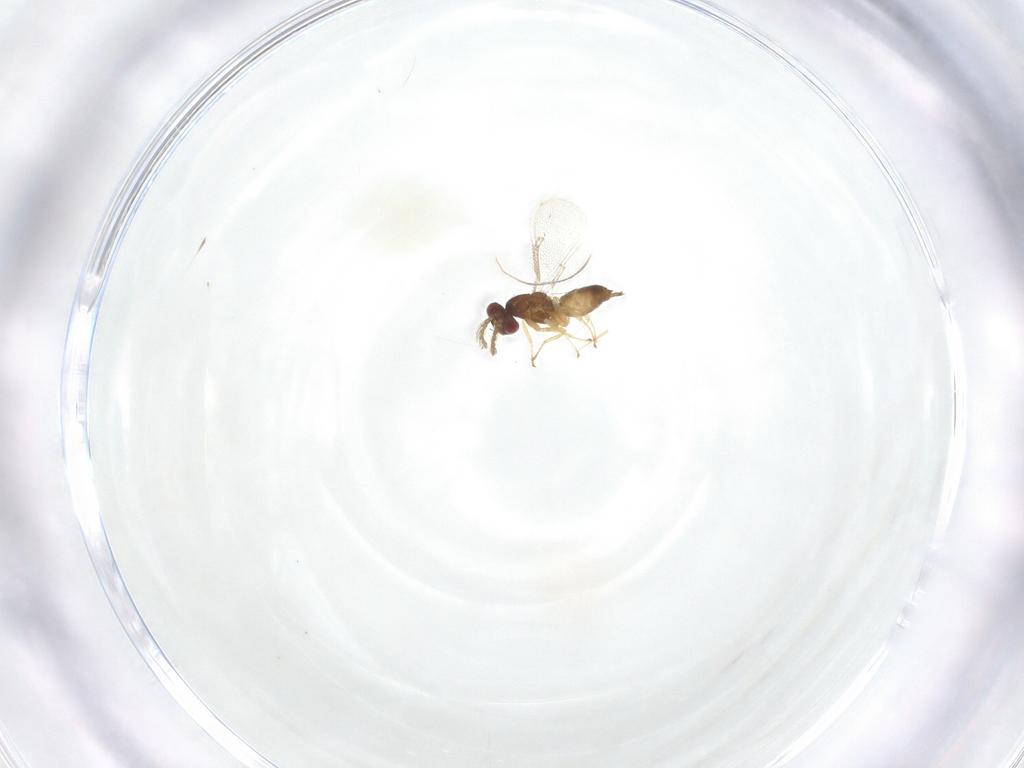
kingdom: Animalia
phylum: Arthropoda
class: Insecta
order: Hymenoptera
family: Eulophidae
